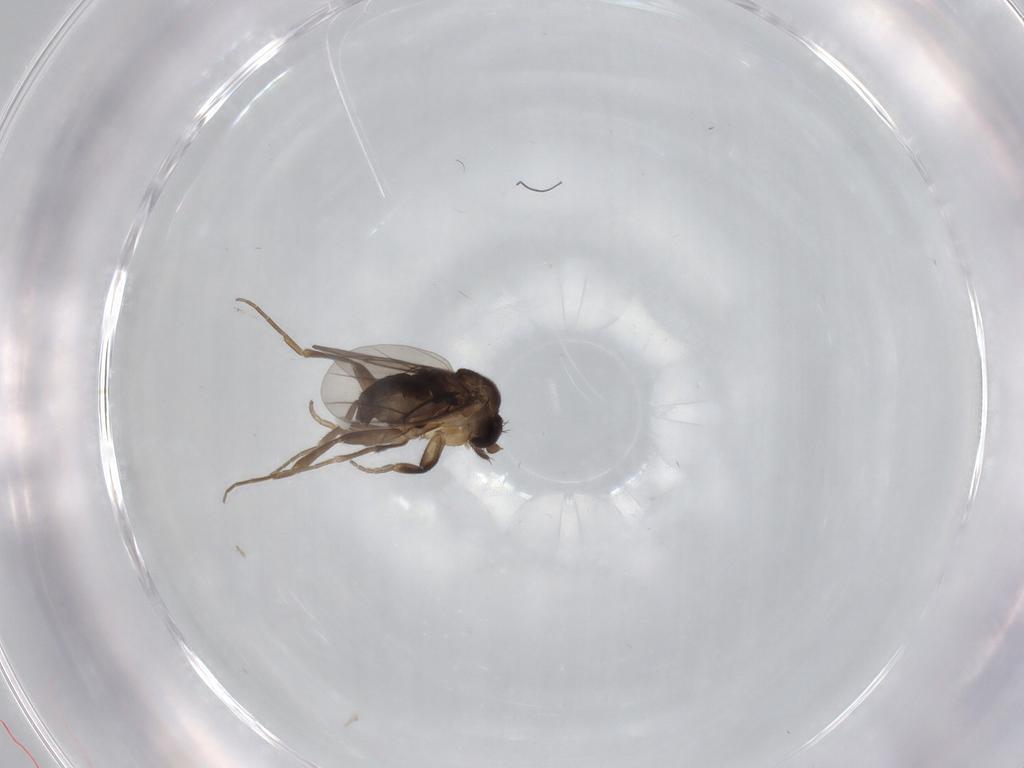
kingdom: Animalia
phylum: Arthropoda
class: Insecta
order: Diptera
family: Phoridae
